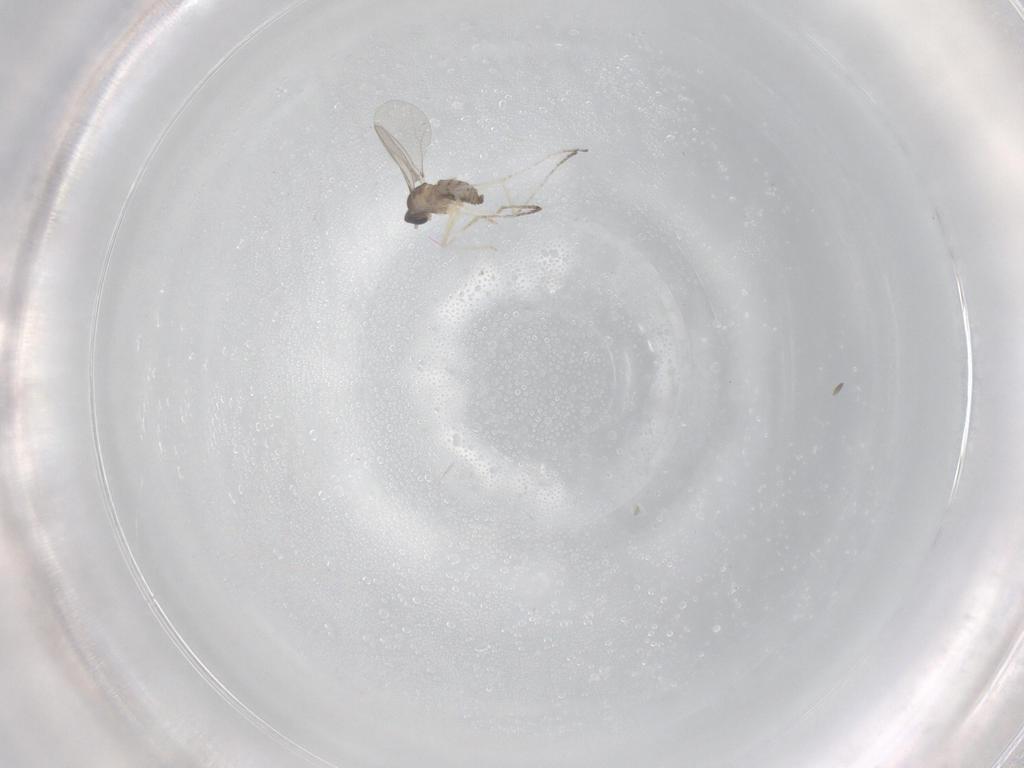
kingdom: Animalia
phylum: Arthropoda
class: Insecta
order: Diptera
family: Cecidomyiidae
